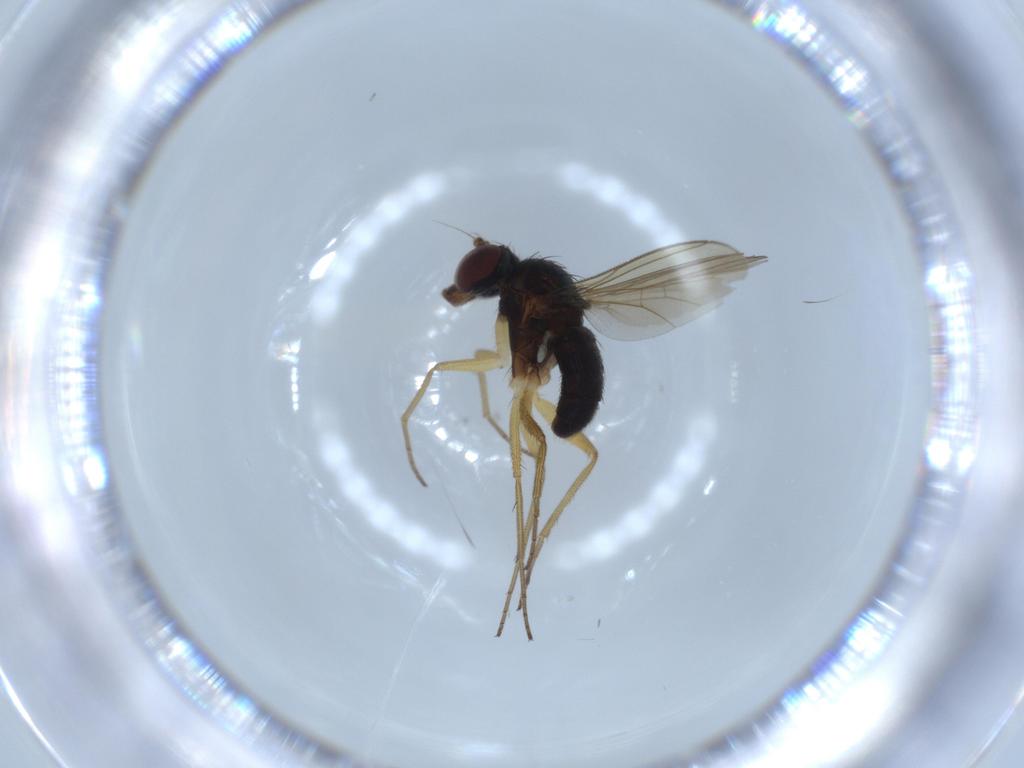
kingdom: Animalia
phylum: Arthropoda
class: Insecta
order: Diptera
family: Dolichopodidae
